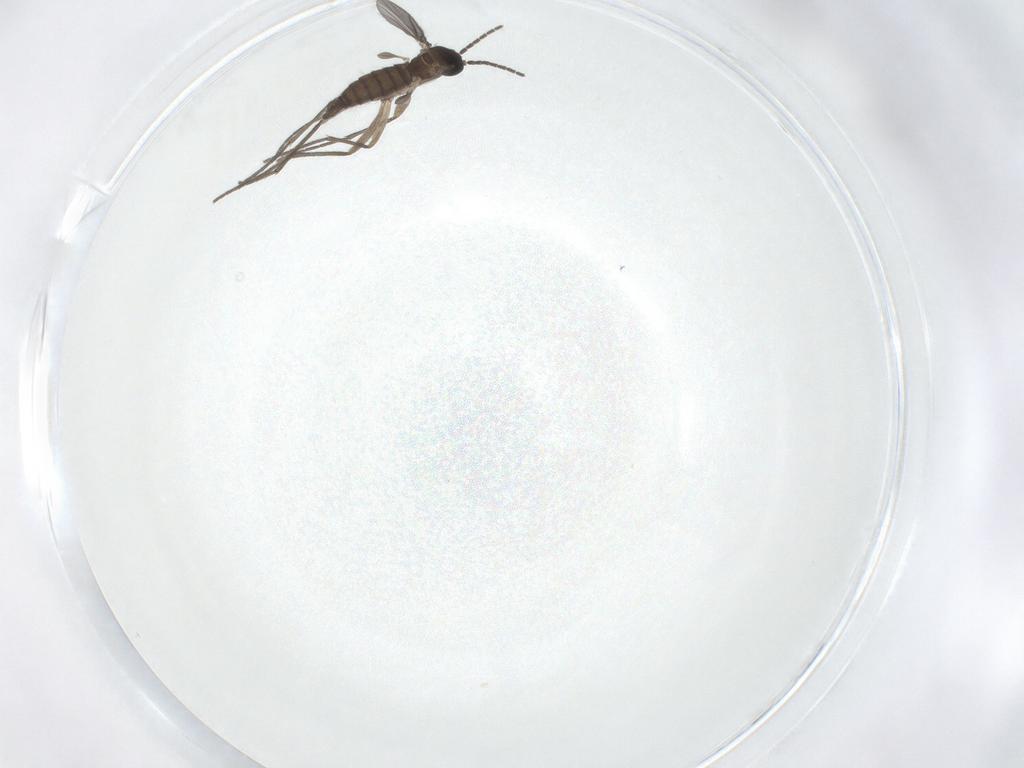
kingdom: Animalia
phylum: Arthropoda
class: Insecta
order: Diptera
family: Sciaridae
